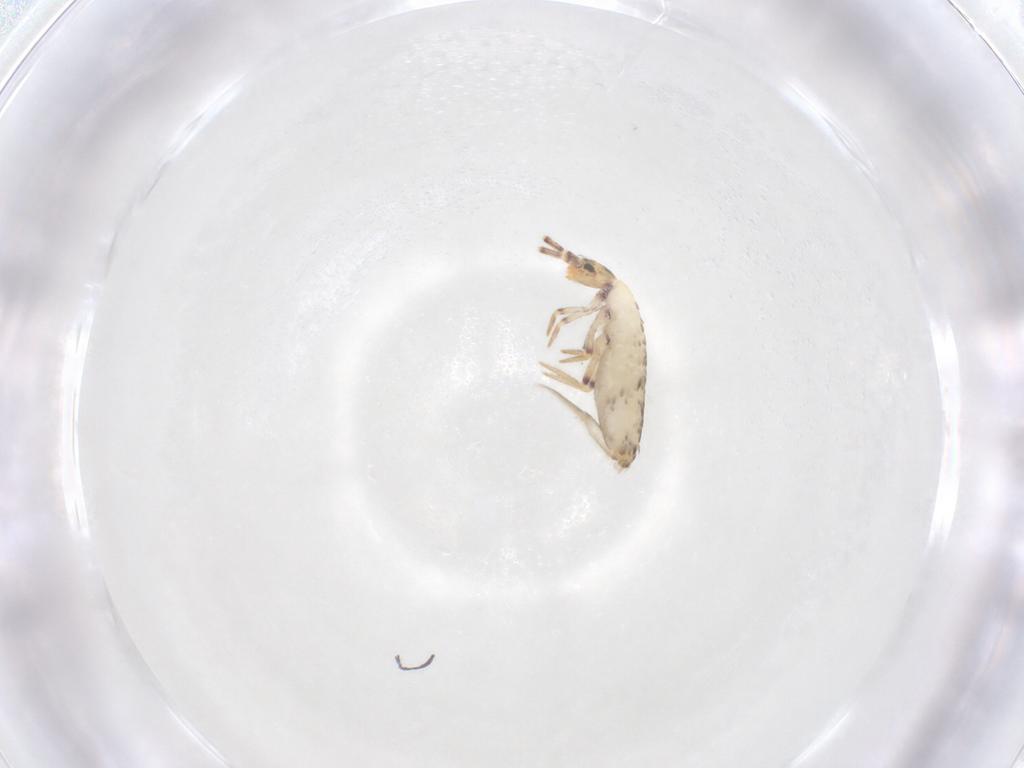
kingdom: Animalia
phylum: Arthropoda
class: Collembola
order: Entomobryomorpha
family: Entomobryidae
